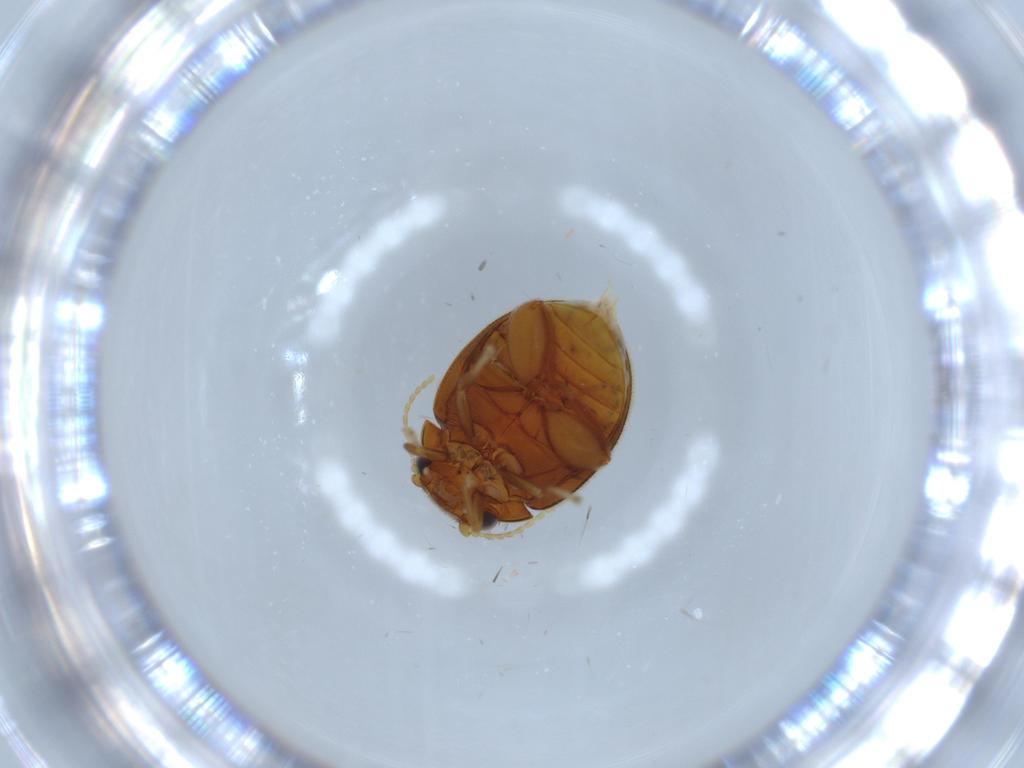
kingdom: Animalia
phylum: Arthropoda
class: Insecta
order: Coleoptera
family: Scirtidae
